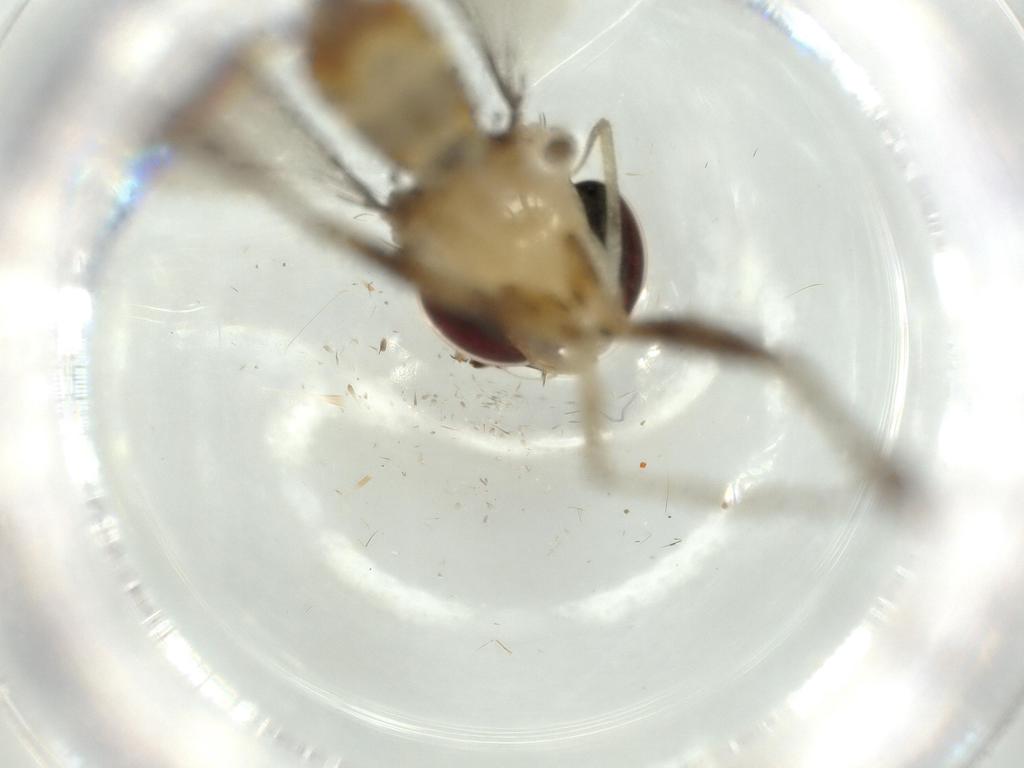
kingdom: Animalia
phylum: Arthropoda
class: Insecta
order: Diptera
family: Conopidae
